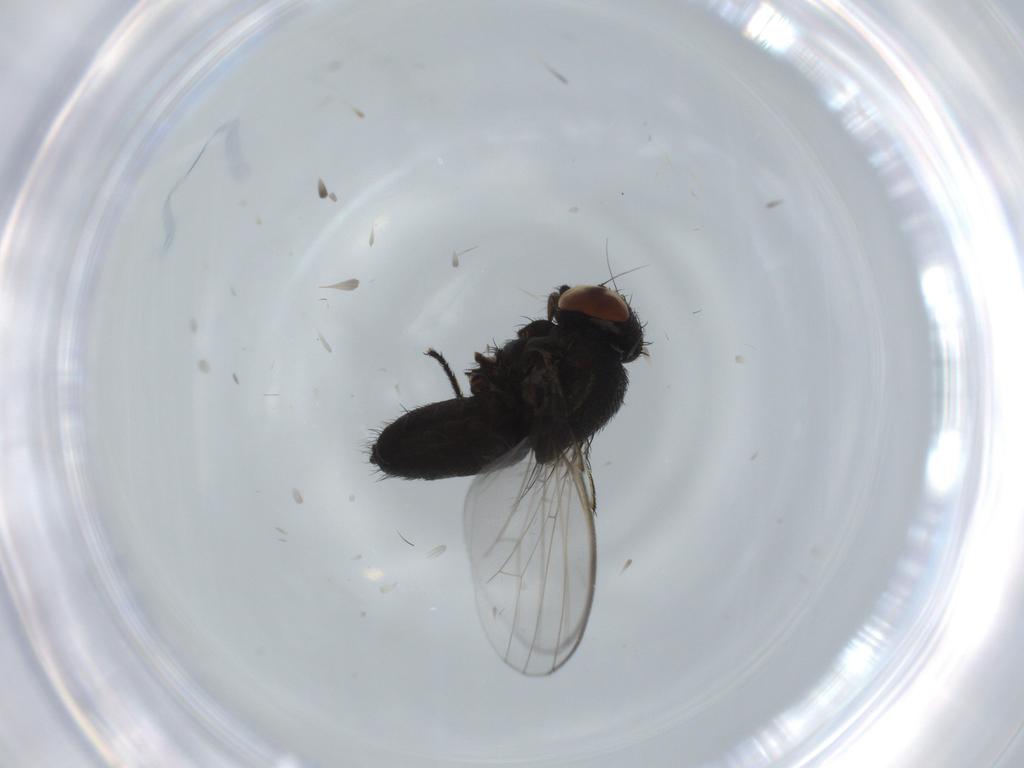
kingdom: Animalia
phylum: Arthropoda
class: Insecta
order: Diptera
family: Milichiidae
